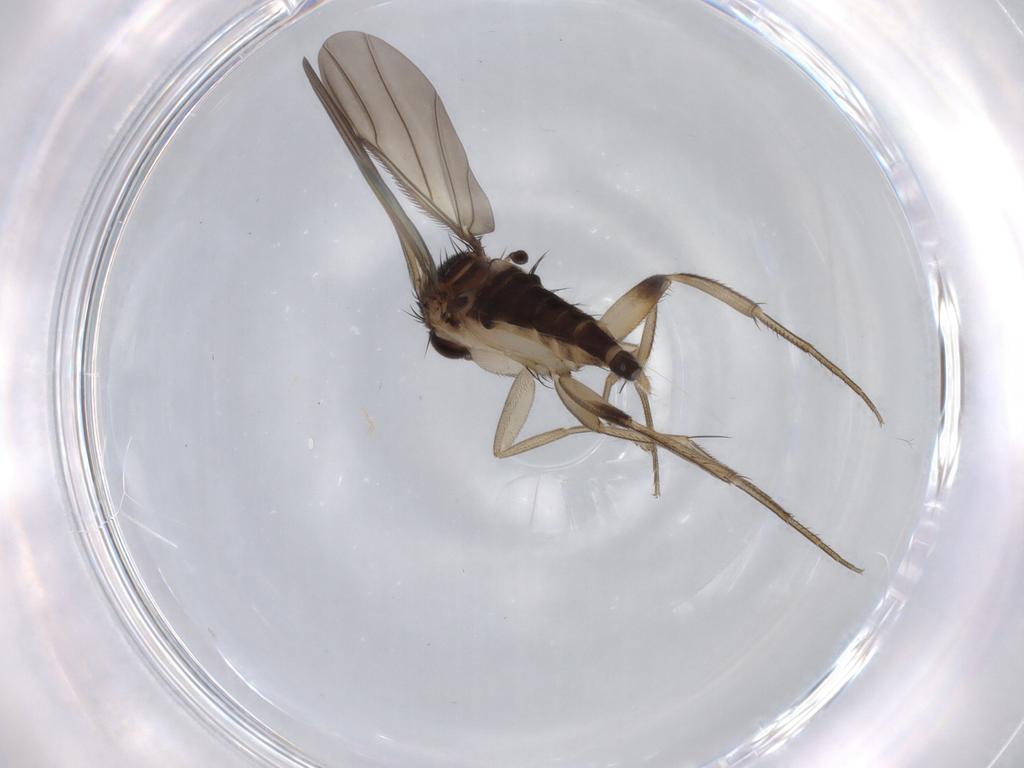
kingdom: Animalia
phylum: Arthropoda
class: Insecta
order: Diptera
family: Phoridae
